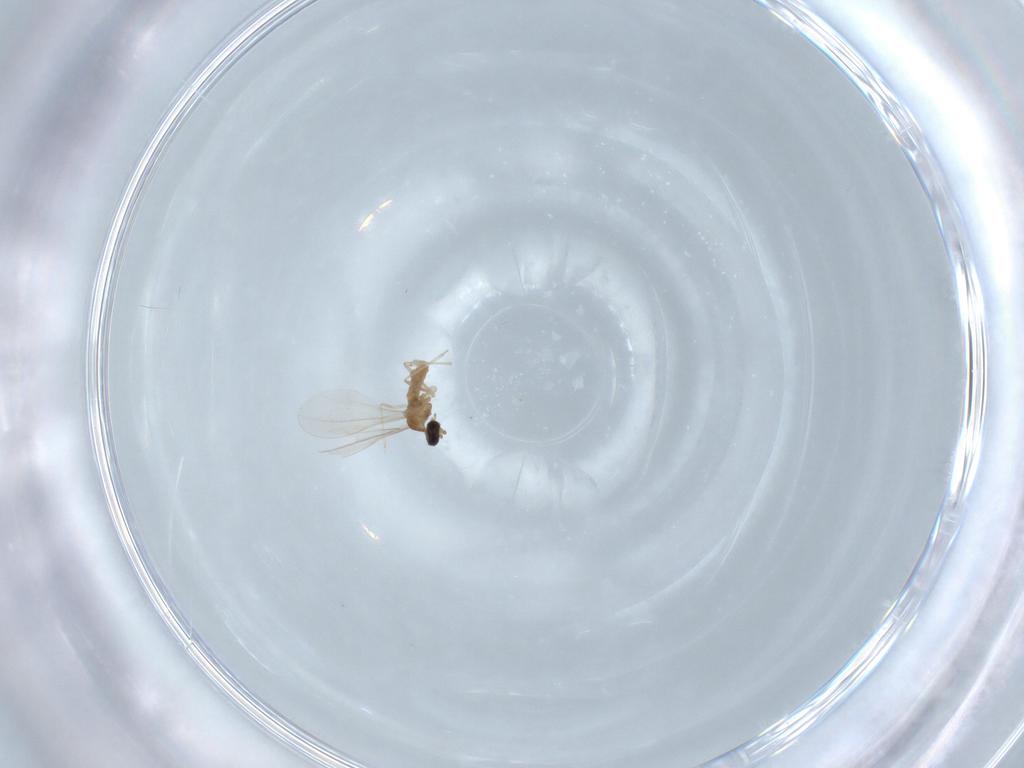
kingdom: Animalia
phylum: Arthropoda
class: Insecta
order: Diptera
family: Cecidomyiidae
